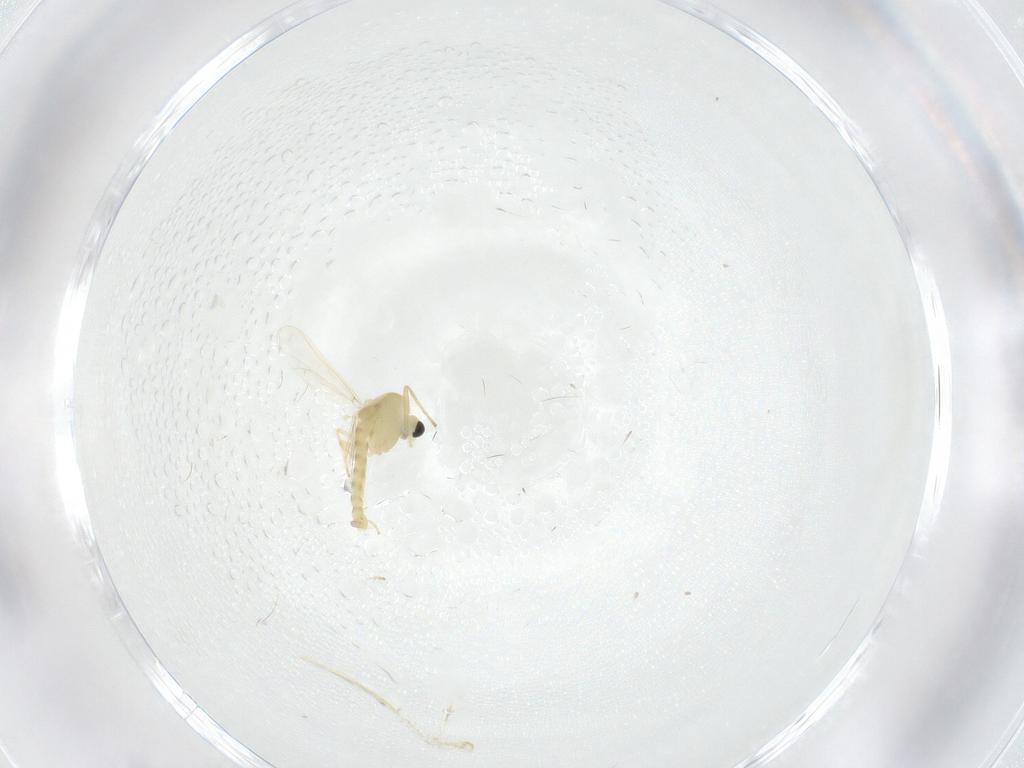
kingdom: Animalia
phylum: Arthropoda
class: Insecta
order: Diptera
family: Chironomidae
